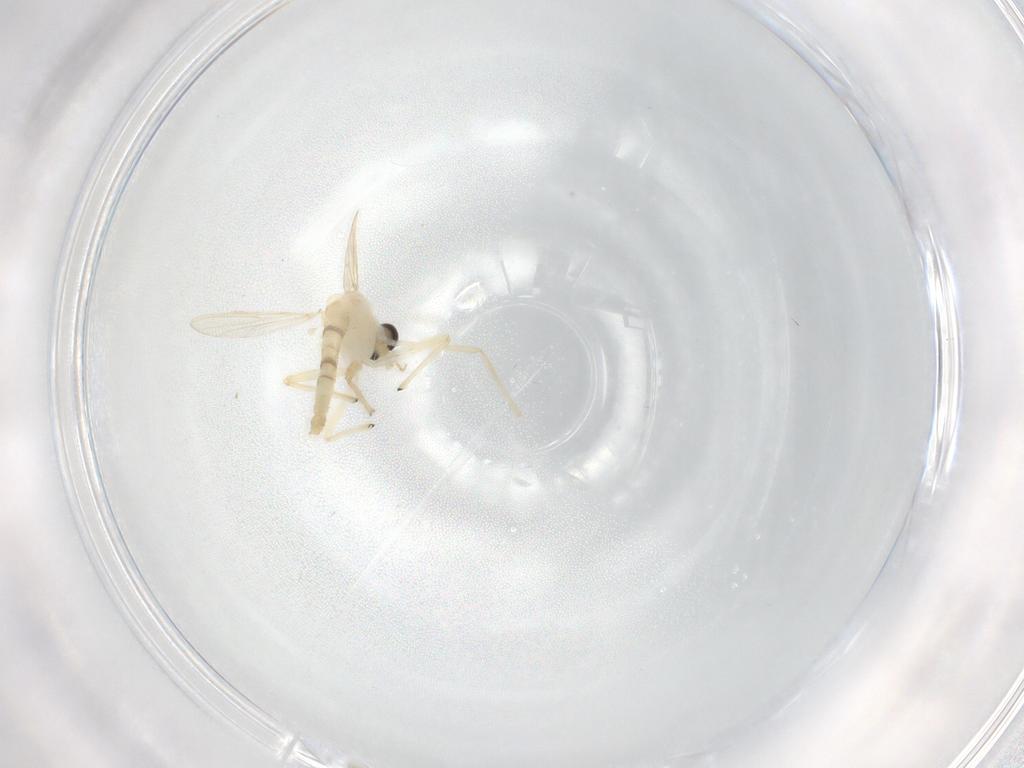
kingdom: Animalia
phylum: Arthropoda
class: Insecta
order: Diptera
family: Chironomidae
